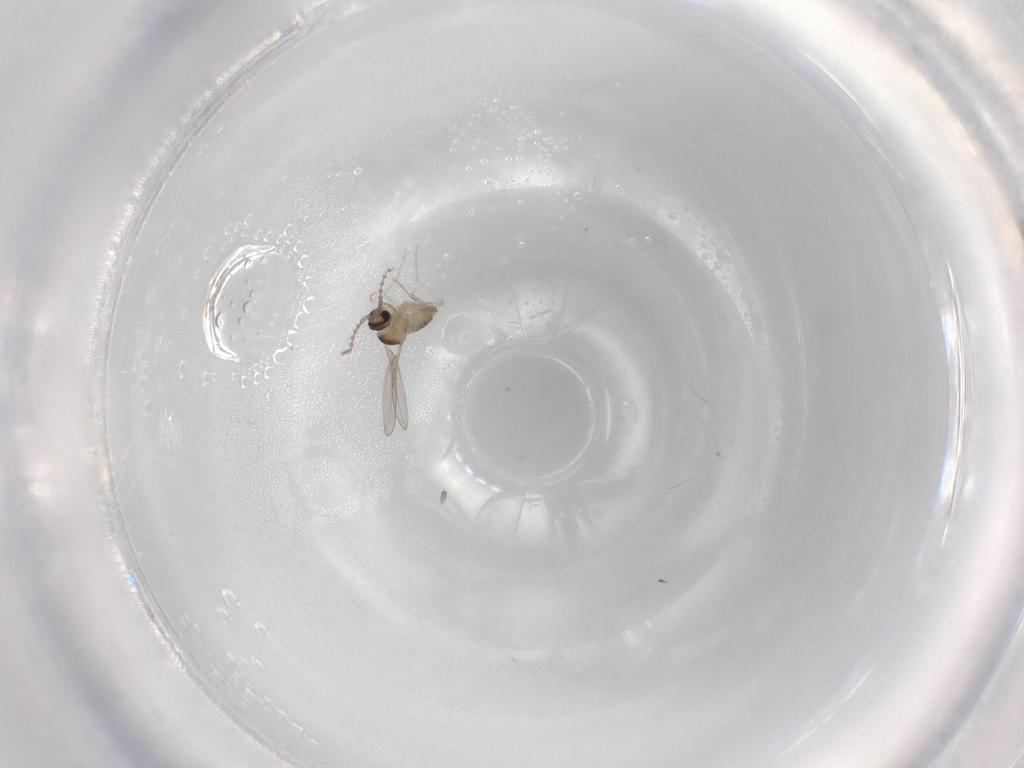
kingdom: Animalia
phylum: Arthropoda
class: Insecta
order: Diptera
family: Cecidomyiidae
